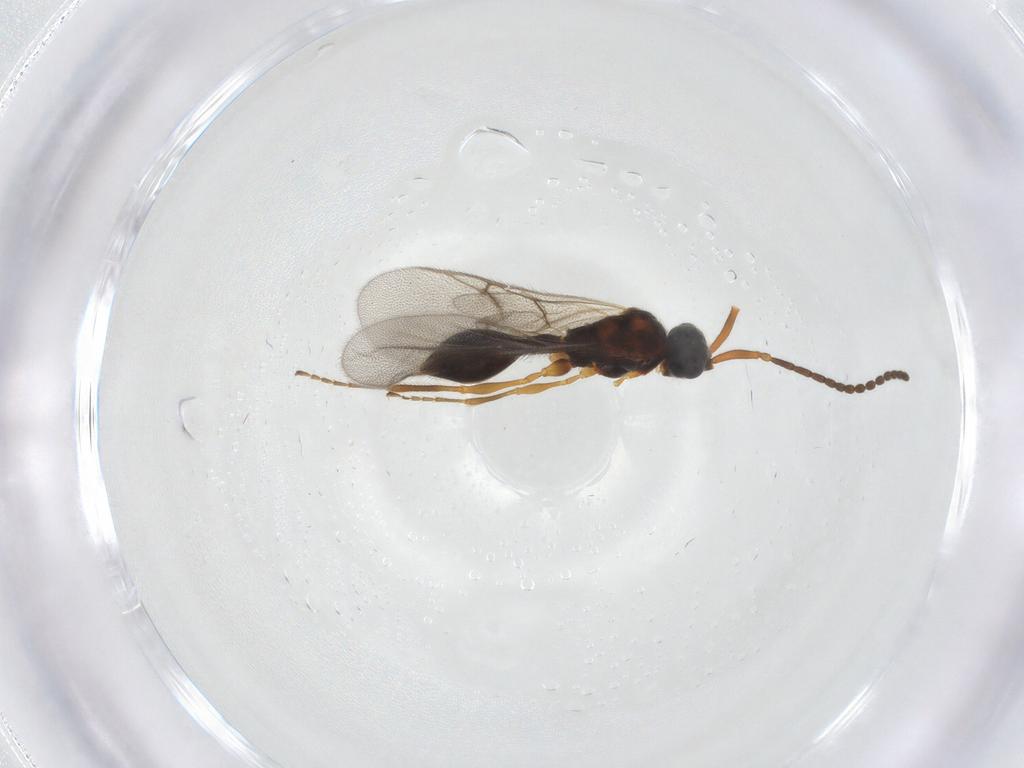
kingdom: Animalia
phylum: Arthropoda
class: Insecta
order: Hymenoptera
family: Diapriidae
